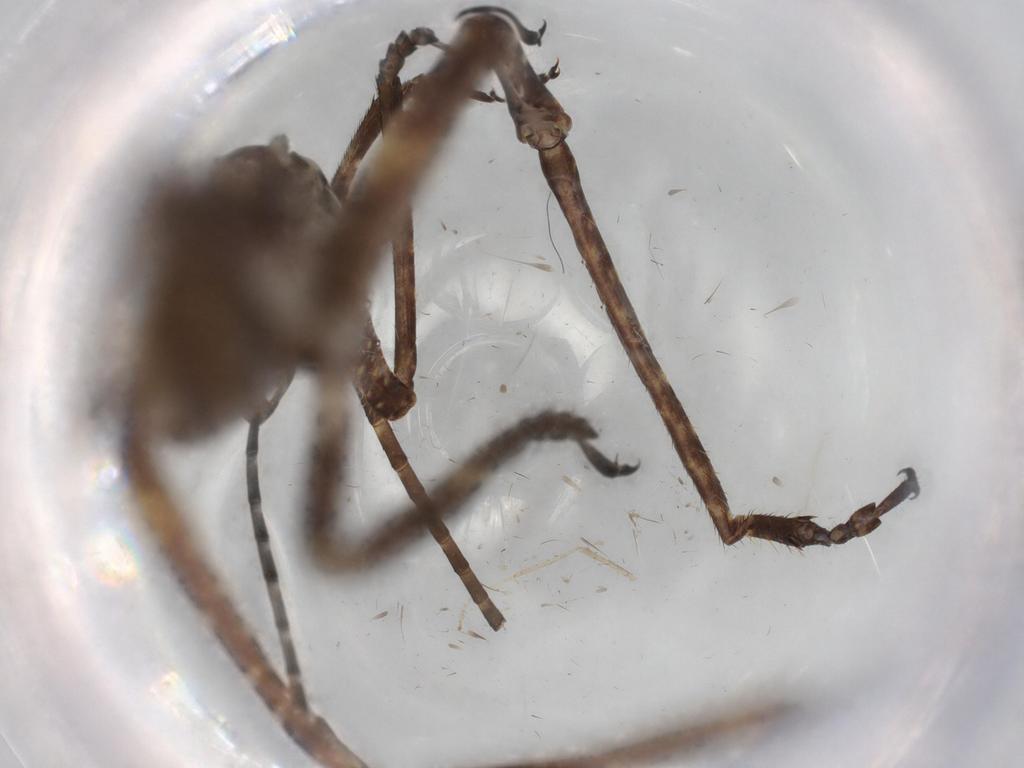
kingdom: Animalia
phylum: Arthropoda
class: Insecta
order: Orthoptera
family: Tettigoniidae
